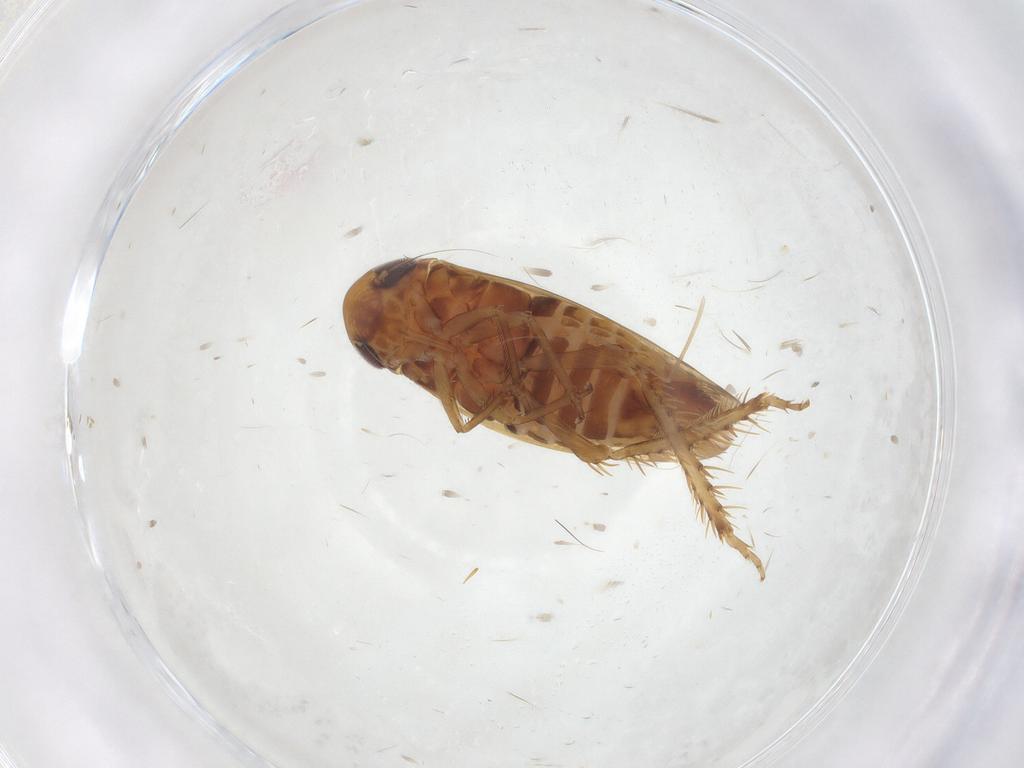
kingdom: Animalia
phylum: Arthropoda
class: Insecta
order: Hemiptera
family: Cicadellidae
